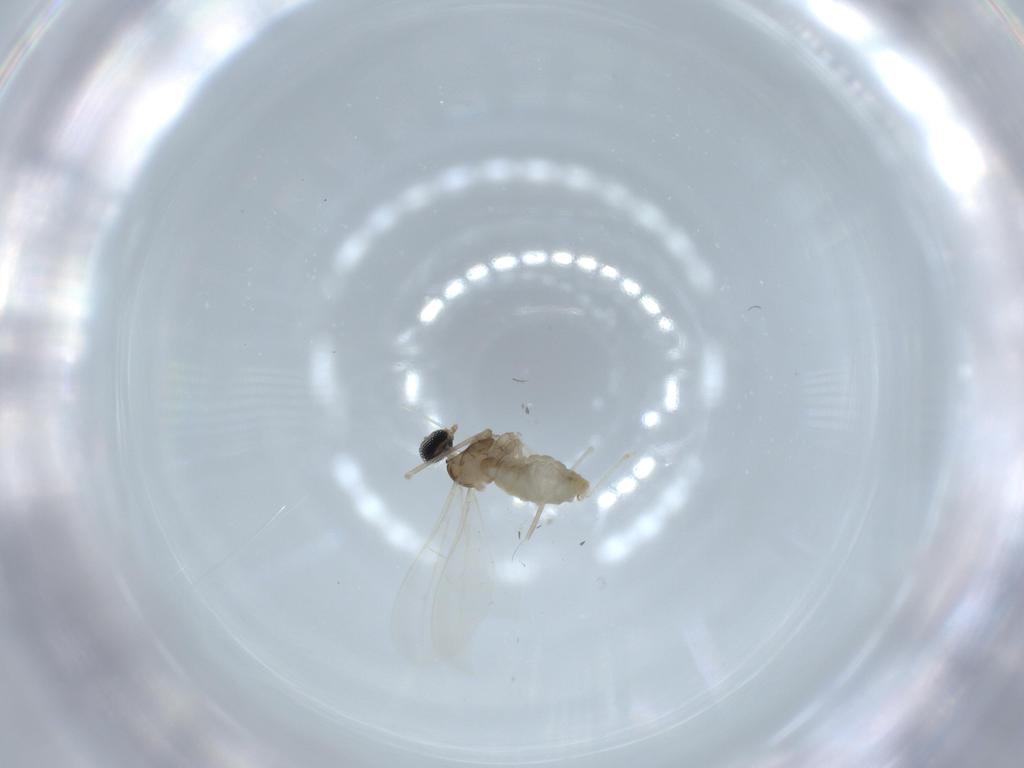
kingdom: Animalia
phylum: Arthropoda
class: Insecta
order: Diptera
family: Cecidomyiidae
